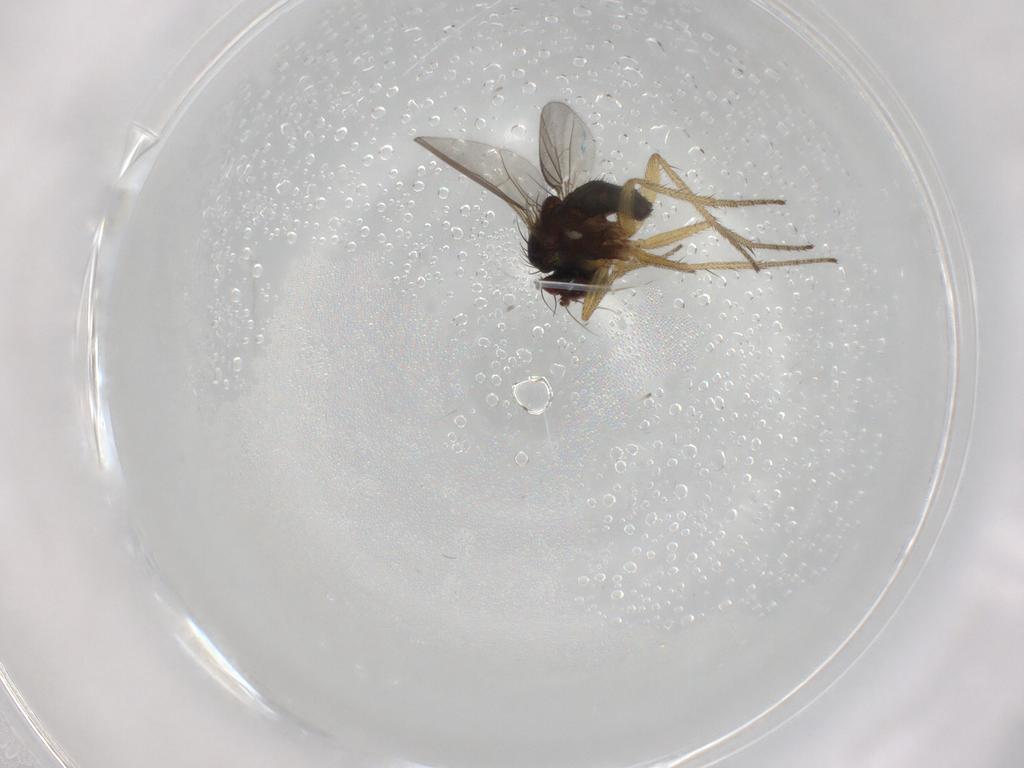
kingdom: Animalia
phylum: Arthropoda
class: Insecta
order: Diptera
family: Dolichopodidae
